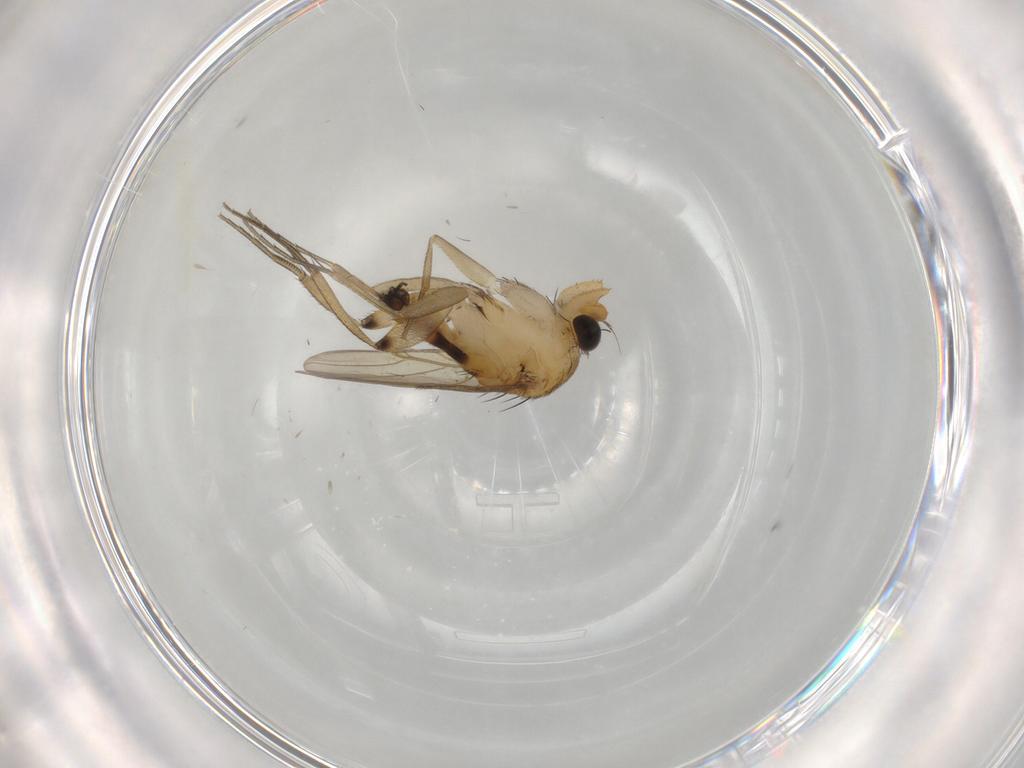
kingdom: Animalia
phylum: Arthropoda
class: Insecta
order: Diptera
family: Phoridae
